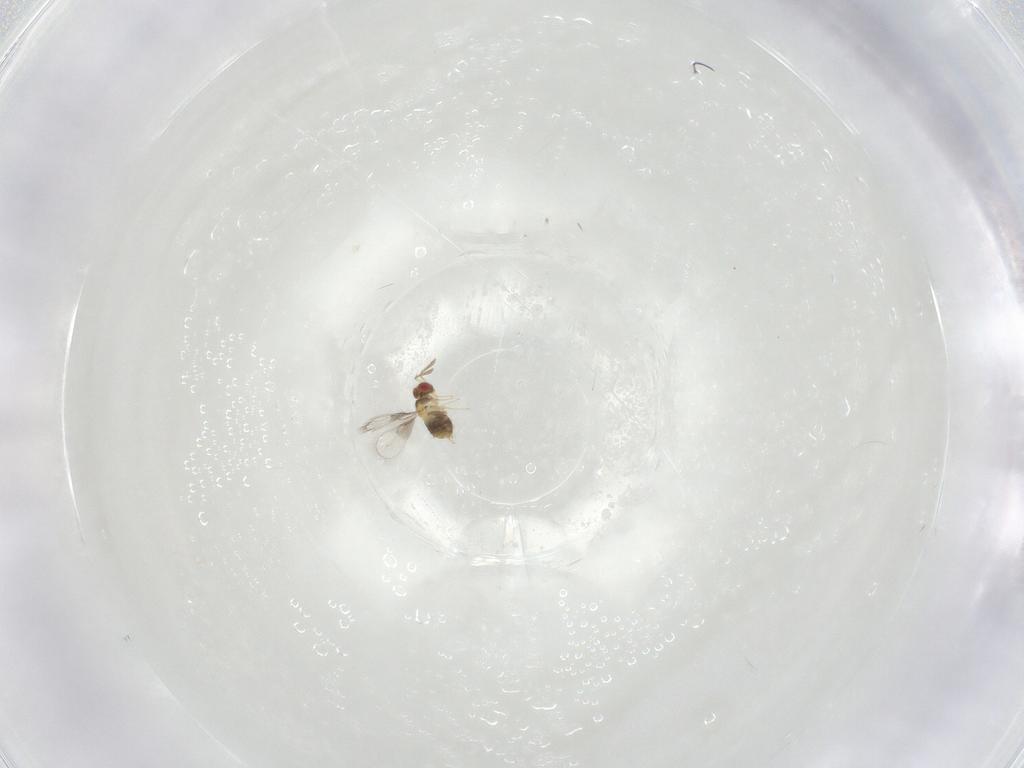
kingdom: Animalia
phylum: Arthropoda
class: Insecta
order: Hymenoptera
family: Trichogrammatidae
